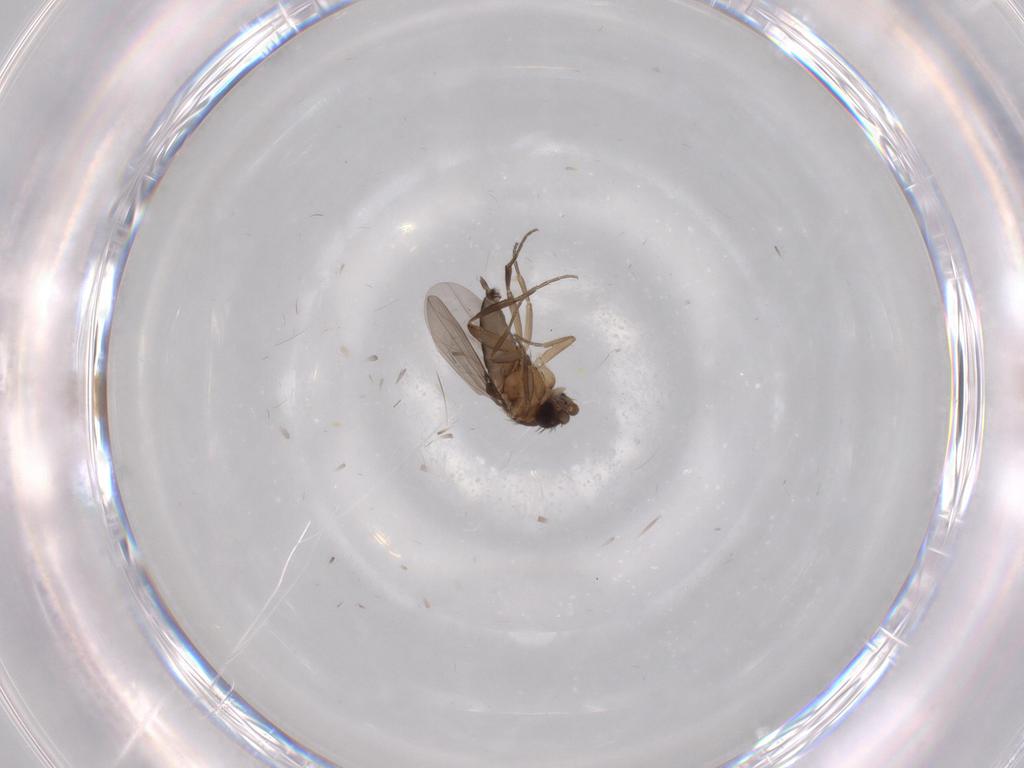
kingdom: Animalia
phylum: Arthropoda
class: Insecta
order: Diptera
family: Phoridae
